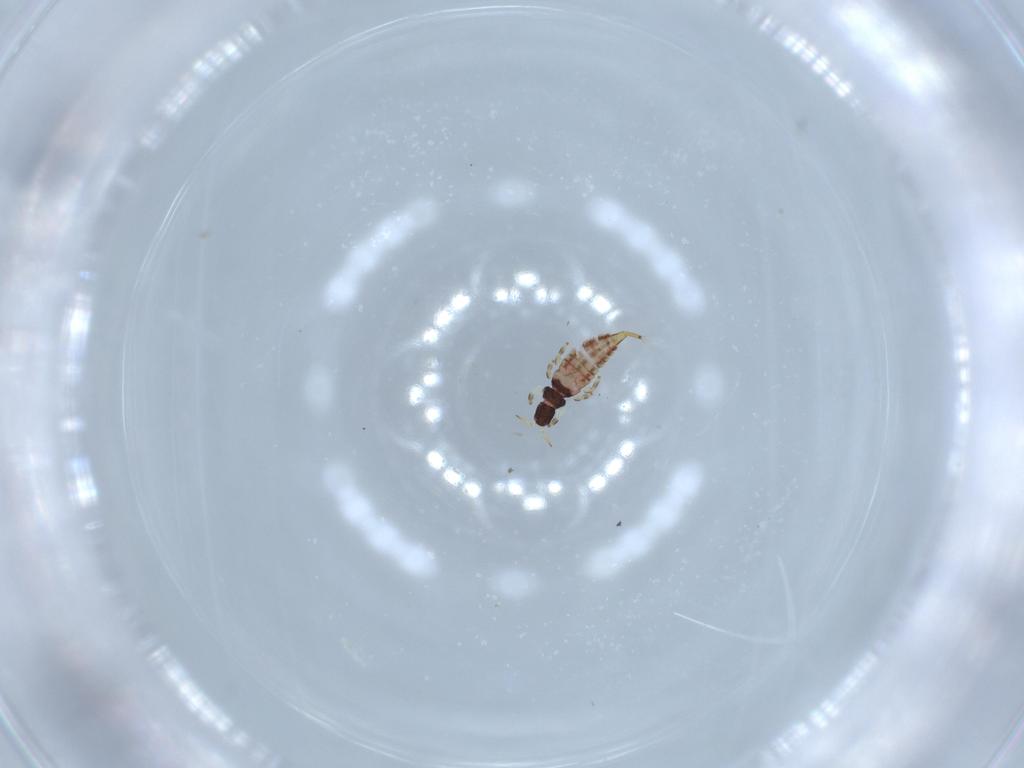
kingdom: Animalia
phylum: Arthropoda
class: Insecta
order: Thysanoptera
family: Phlaeothripidae
